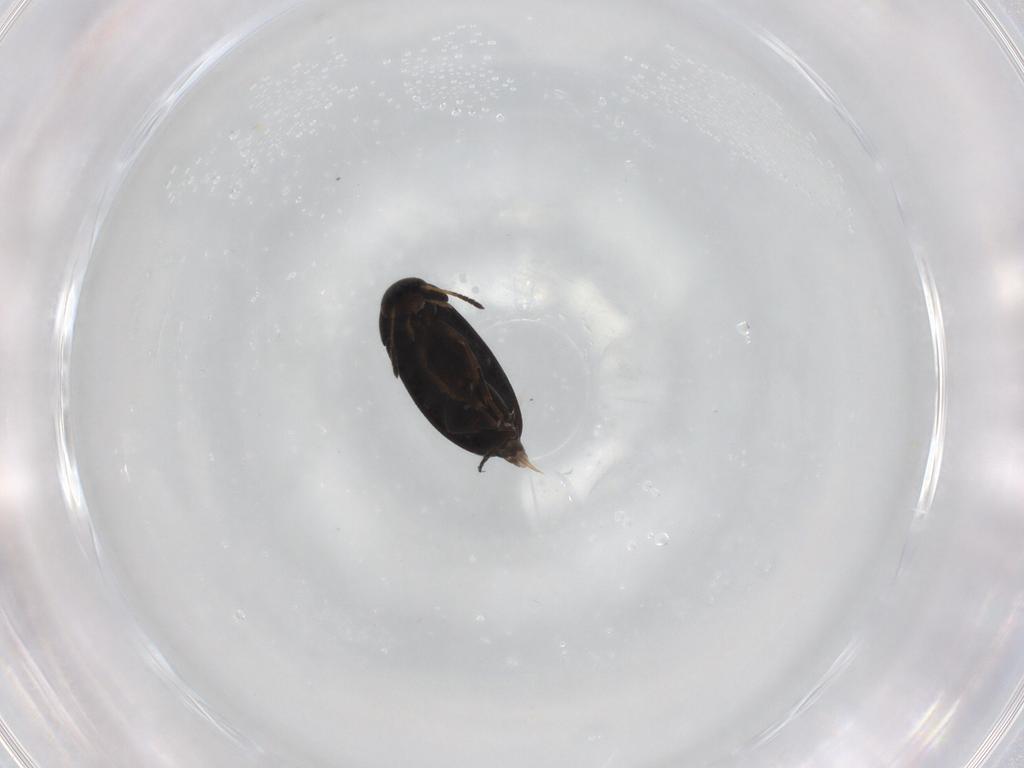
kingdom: Animalia
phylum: Arthropoda
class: Insecta
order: Coleoptera
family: Scraptiidae
